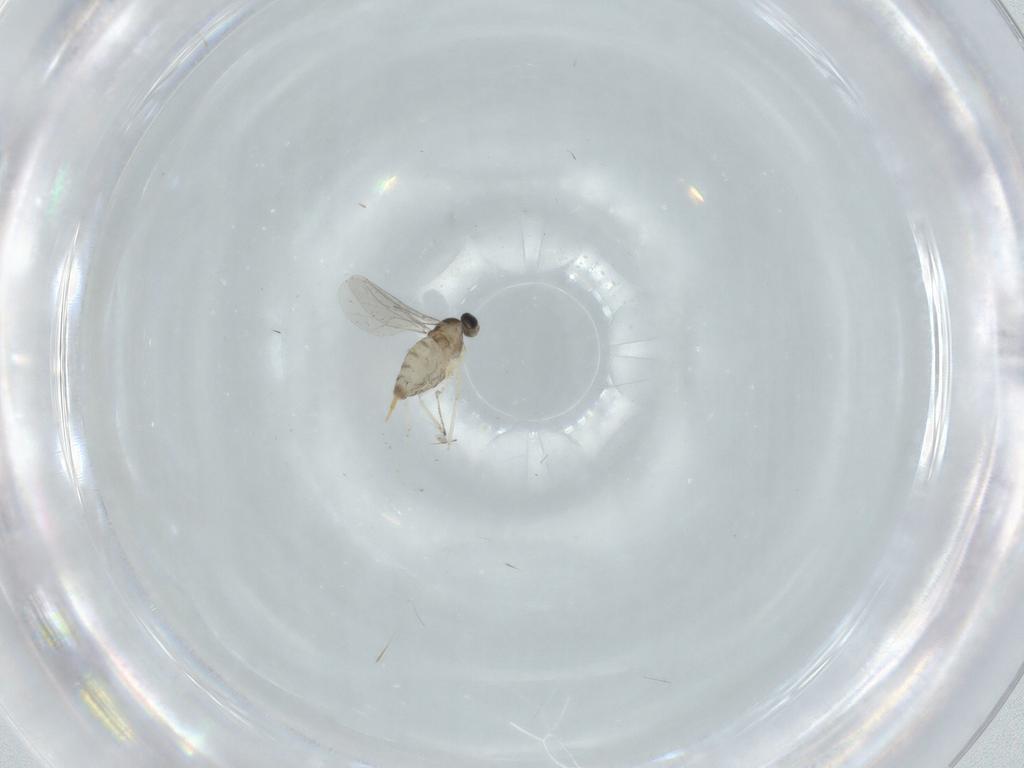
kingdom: Animalia
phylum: Arthropoda
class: Insecta
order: Diptera
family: Cecidomyiidae
